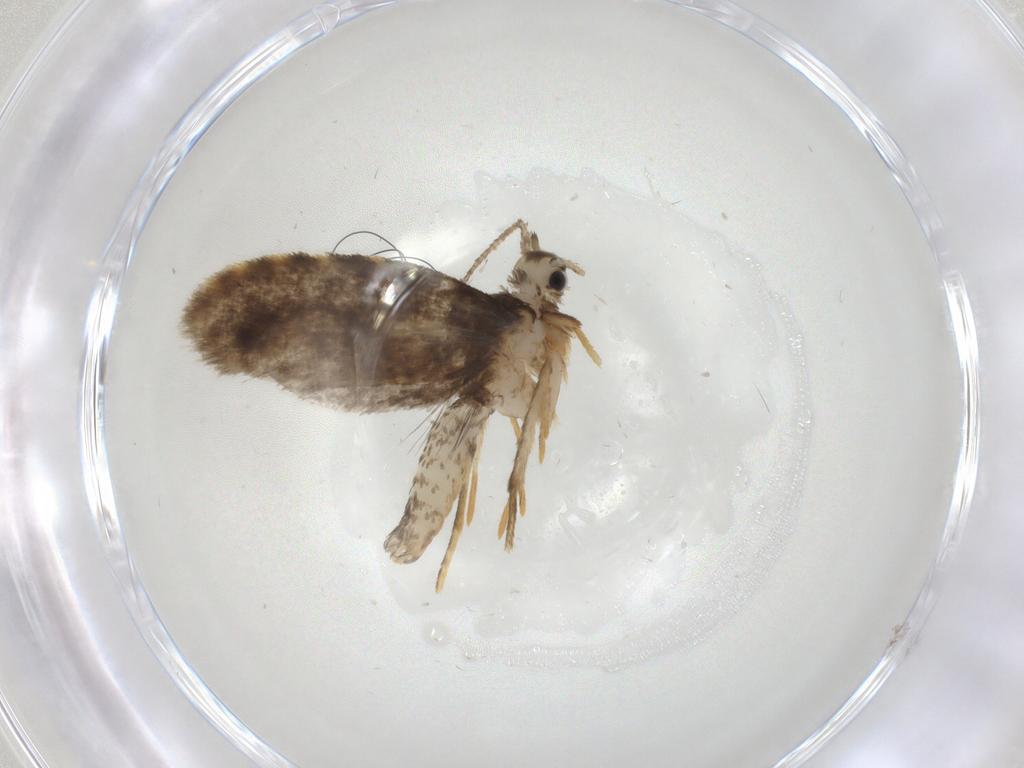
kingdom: Animalia
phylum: Arthropoda
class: Insecta
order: Lepidoptera
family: Psychidae
